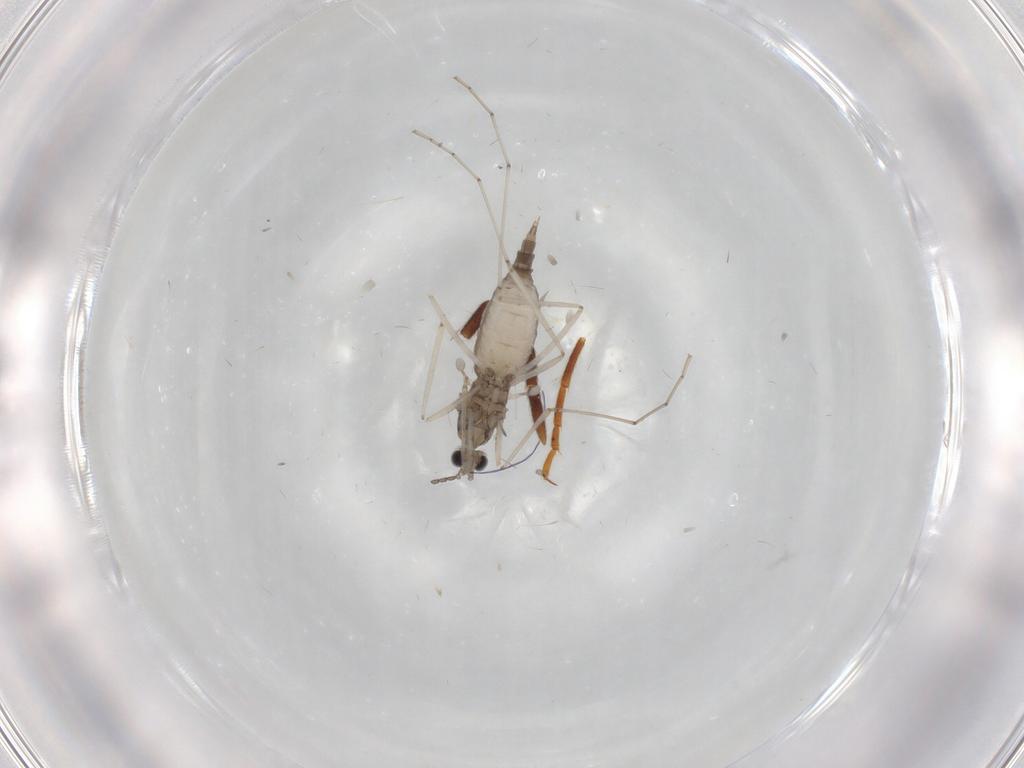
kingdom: Animalia
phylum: Arthropoda
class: Insecta
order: Diptera
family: Cecidomyiidae
